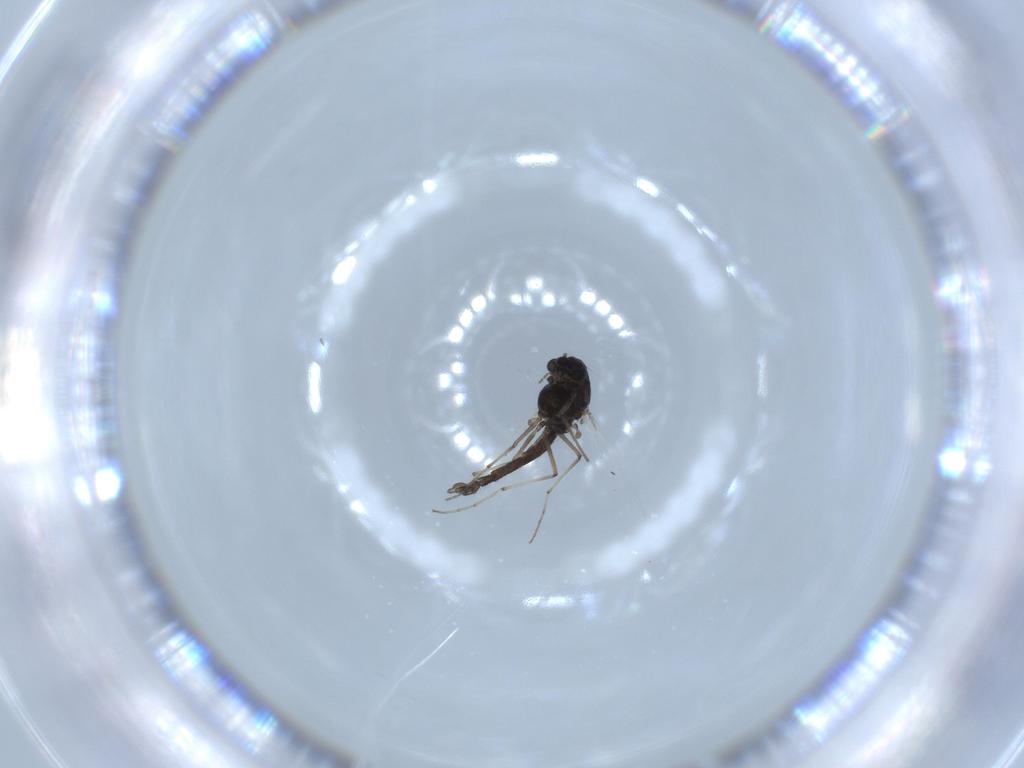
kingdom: Animalia
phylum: Arthropoda
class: Insecta
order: Diptera
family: Chironomidae
